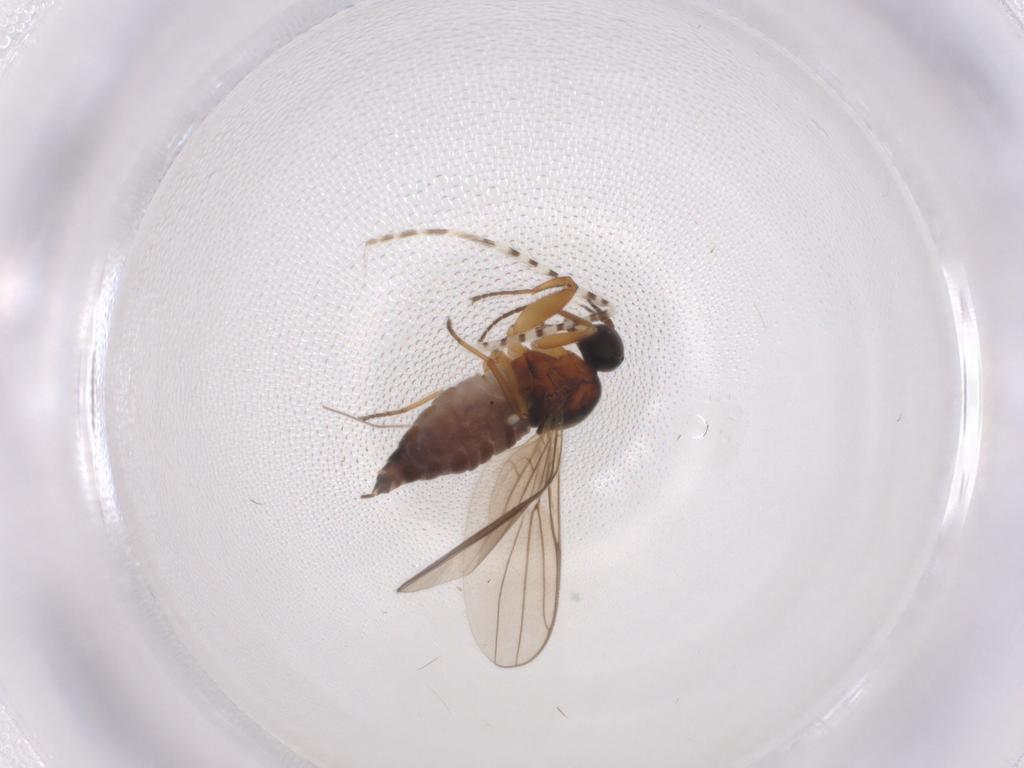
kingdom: Animalia
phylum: Arthropoda
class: Insecta
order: Diptera
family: Hybotidae
